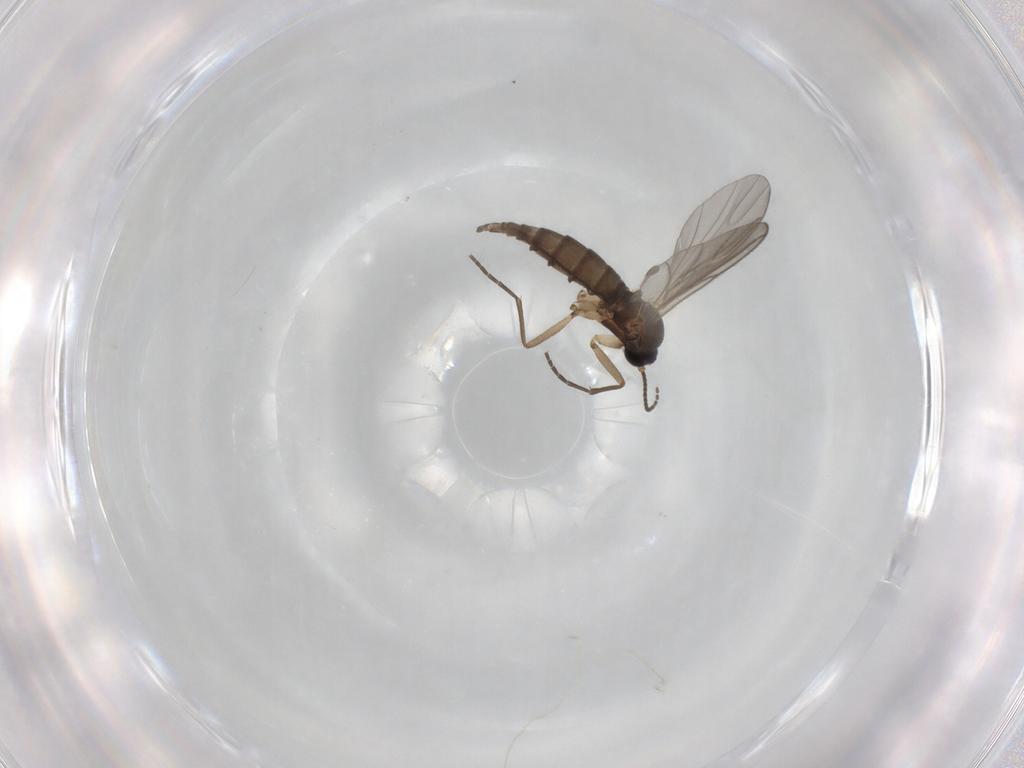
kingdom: Animalia
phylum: Arthropoda
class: Insecta
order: Diptera
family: Sciaridae
